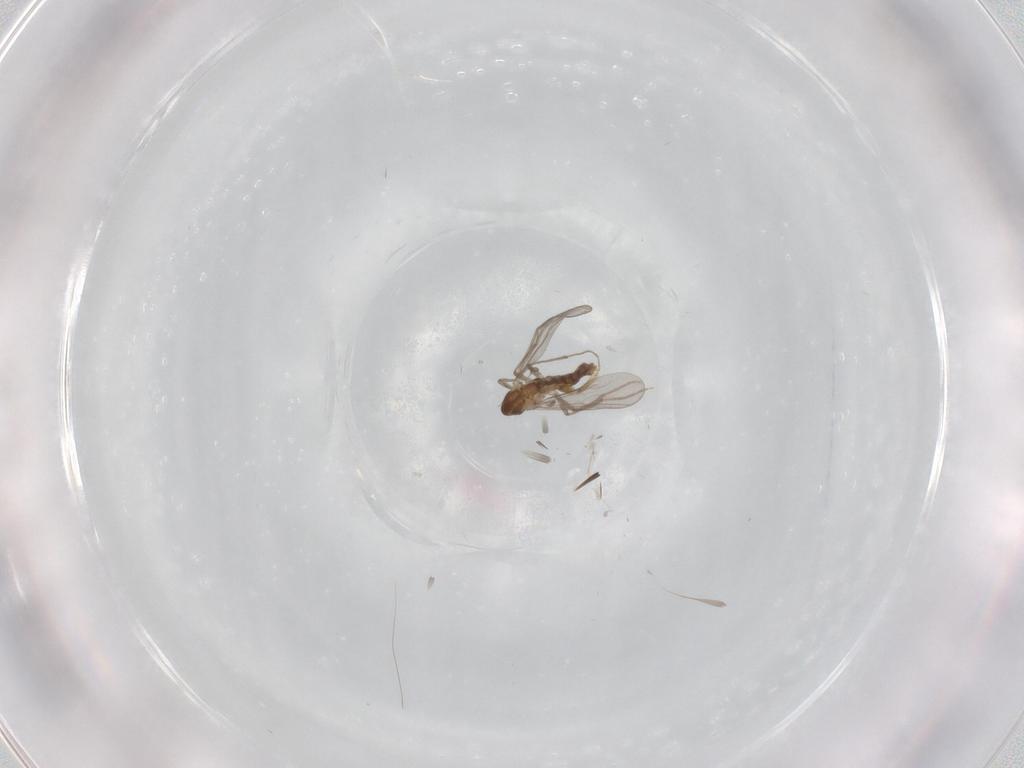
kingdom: Animalia
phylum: Arthropoda
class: Insecta
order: Diptera
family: Chironomidae
